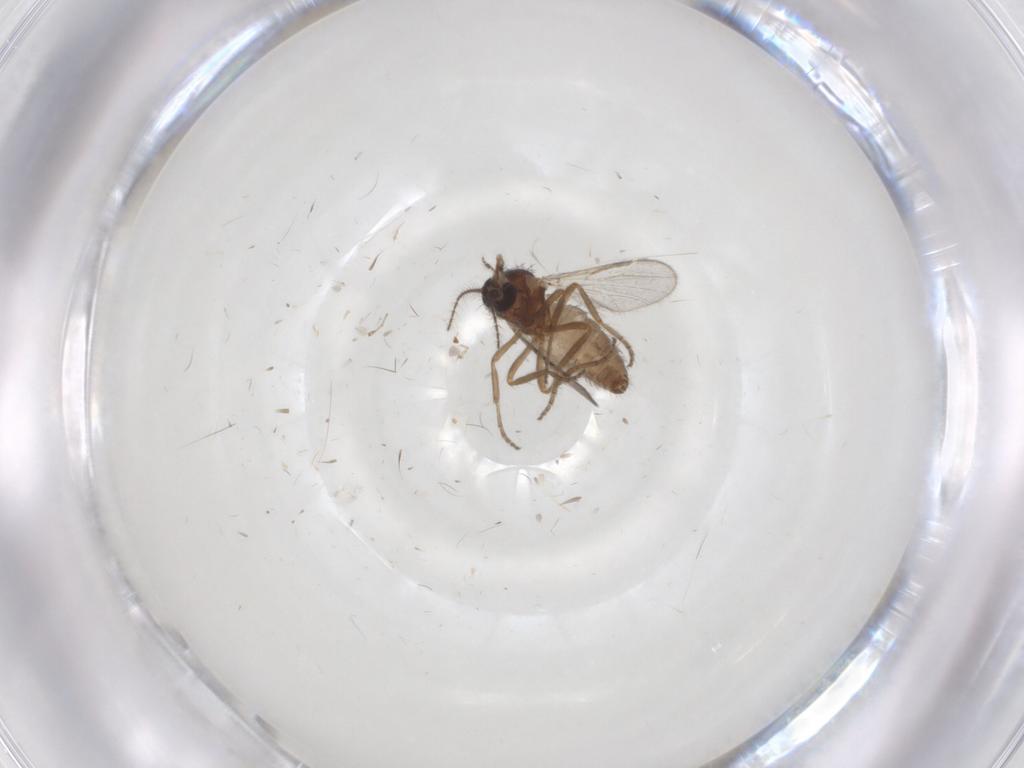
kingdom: Animalia
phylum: Arthropoda
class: Insecta
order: Diptera
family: Ceratopogonidae
